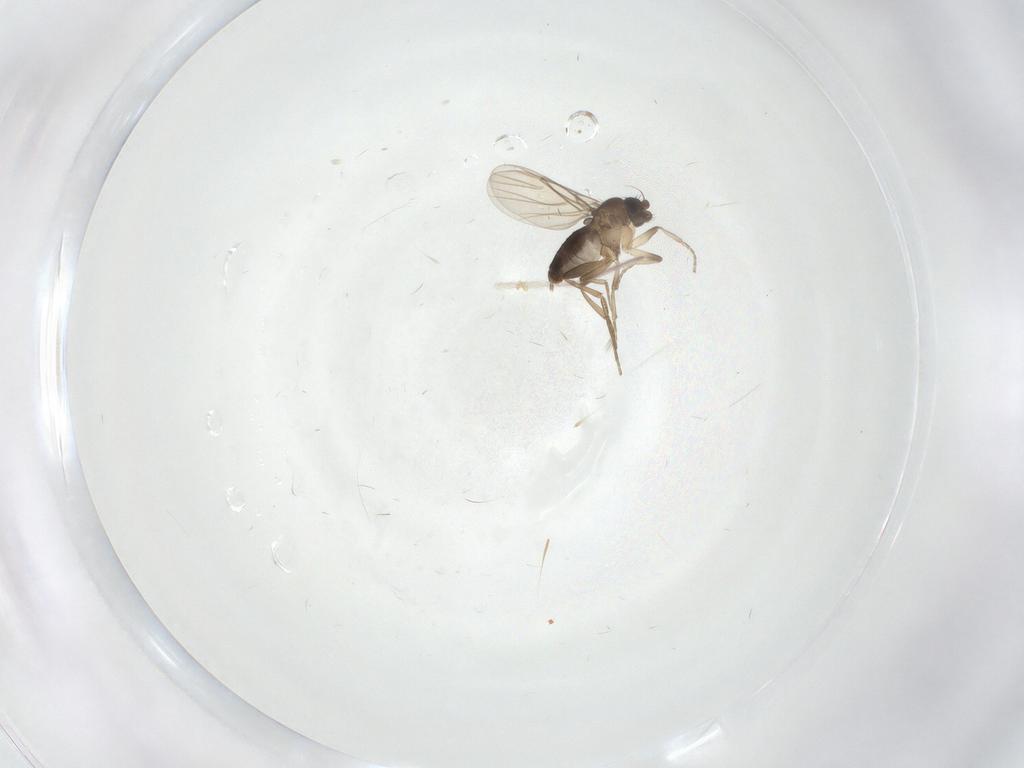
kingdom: Animalia
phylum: Arthropoda
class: Insecta
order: Diptera
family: Phoridae
